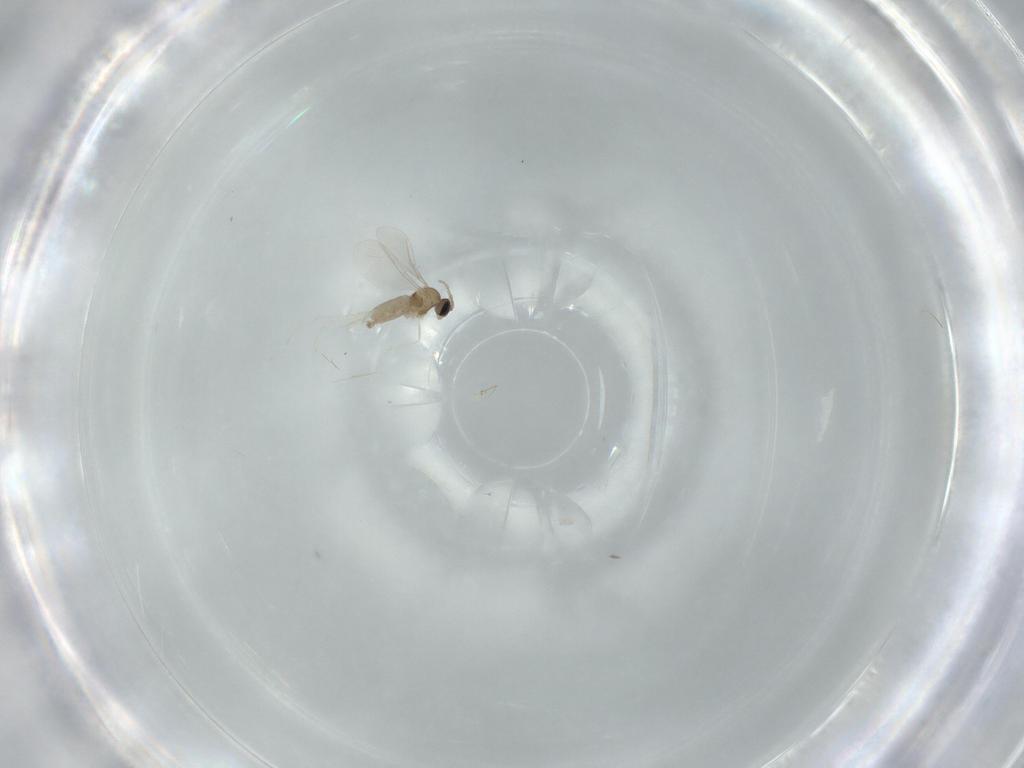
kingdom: Animalia
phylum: Arthropoda
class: Insecta
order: Diptera
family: Cecidomyiidae
